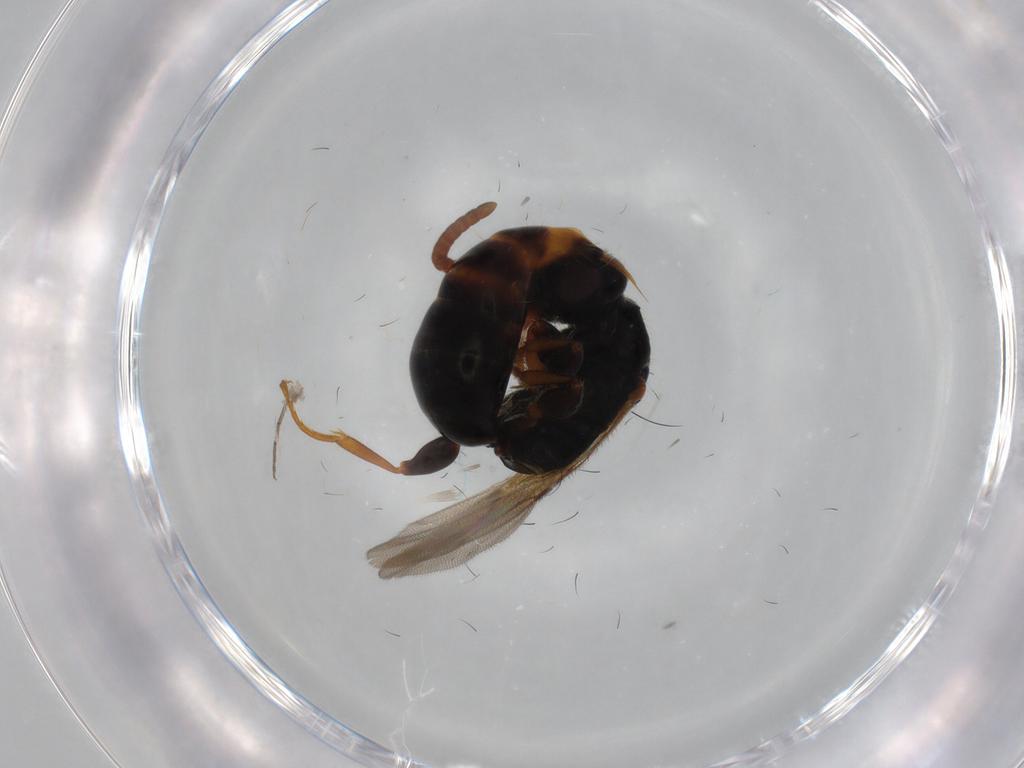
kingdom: Animalia
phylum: Arthropoda
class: Insecta
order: Hymenoptera
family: Bethylidae
